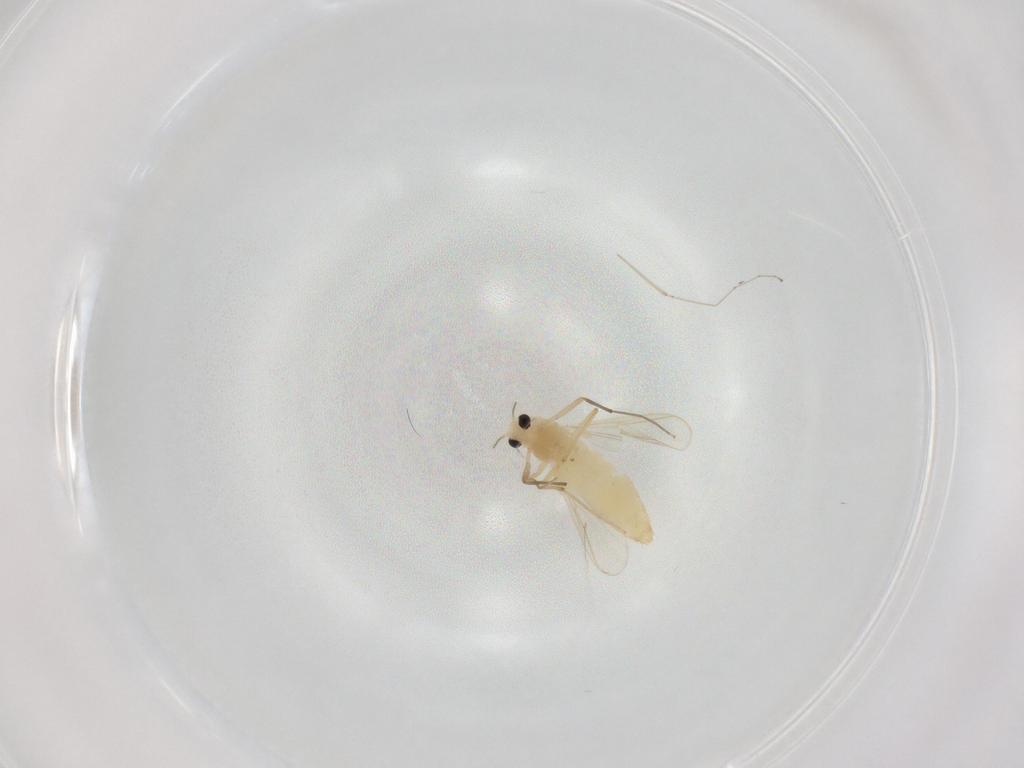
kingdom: Animalia
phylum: Arthropoda
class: Insecta
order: Diptera
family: Chironomidae
